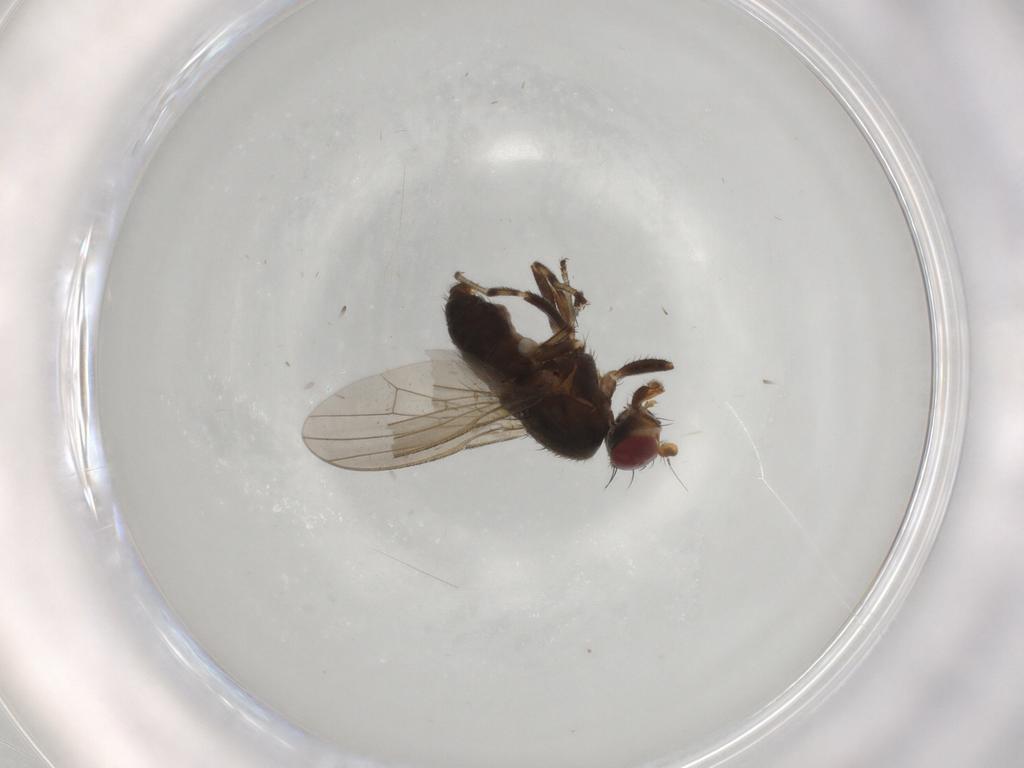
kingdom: Animalia
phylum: Arthropoda
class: Insecta
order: Diptera
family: Heleomyzidae
